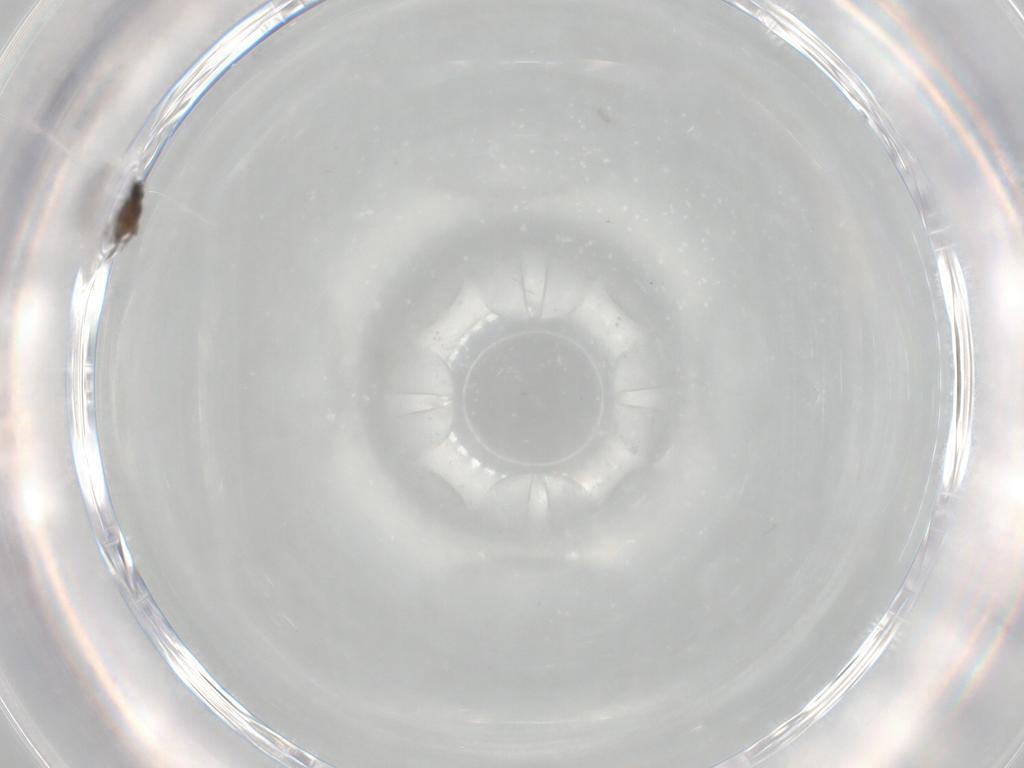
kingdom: Animalia
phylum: Arthropoda
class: Insecta
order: Diptera
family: Cecidomyiidae
